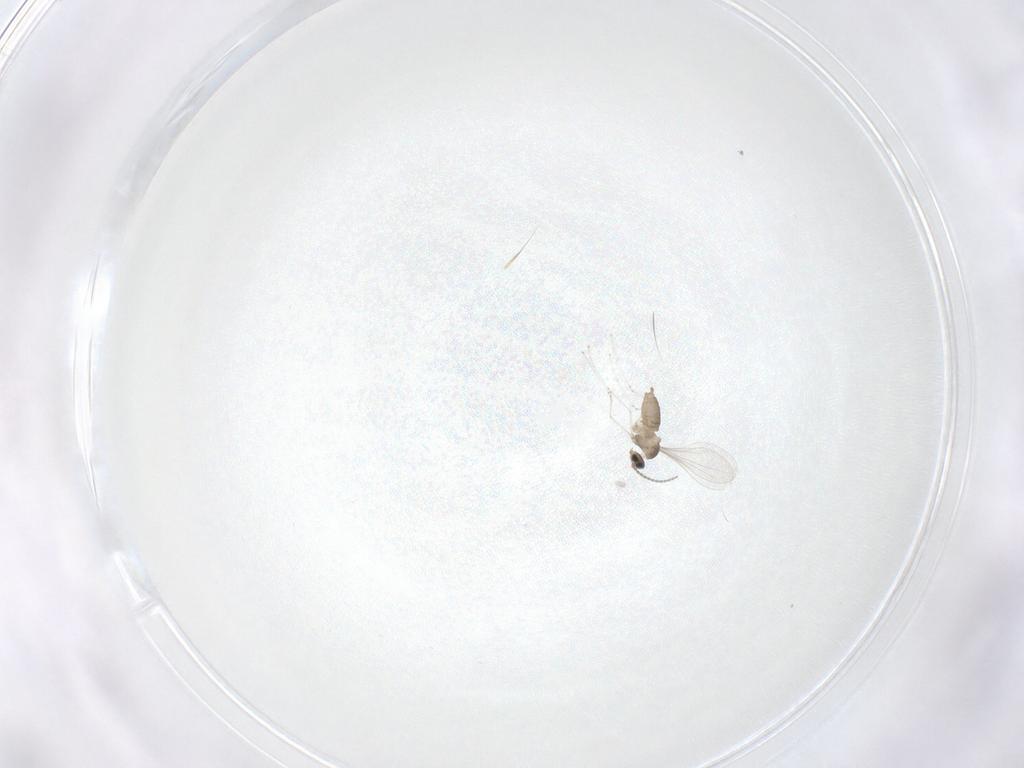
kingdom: Animalia
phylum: Arthropoda
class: Insecta
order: Diptera
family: Cecidomyiidae
